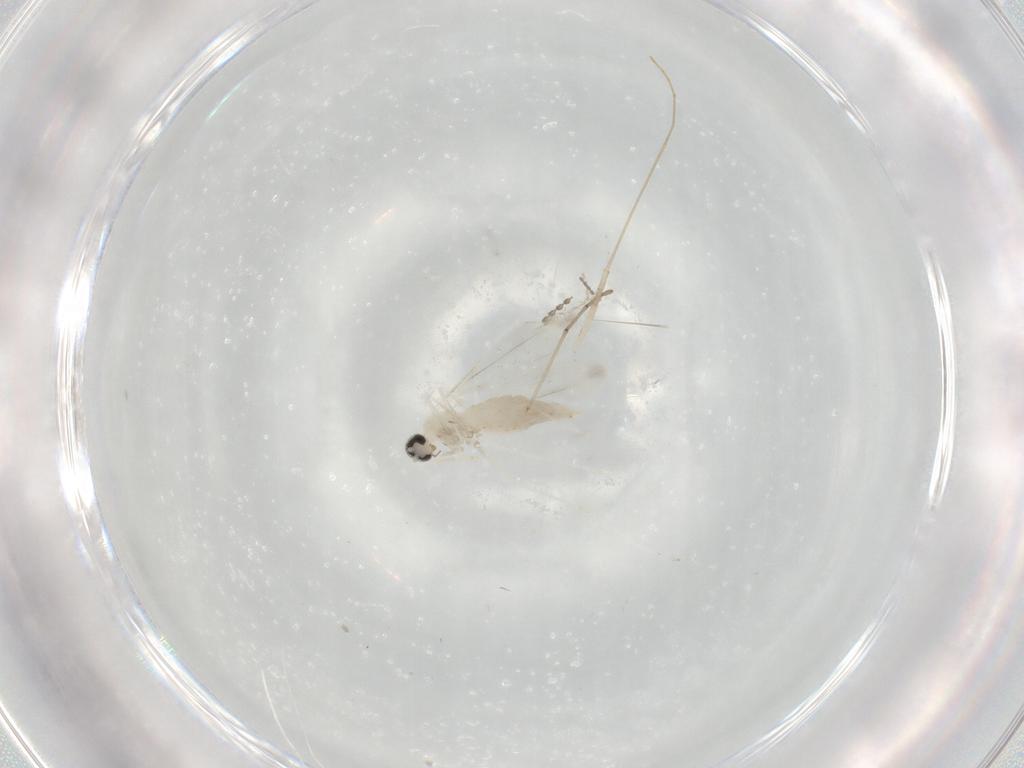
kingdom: Animalia
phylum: Arthropoda
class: Insecta
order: Diptera
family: Cecidomyiidae
